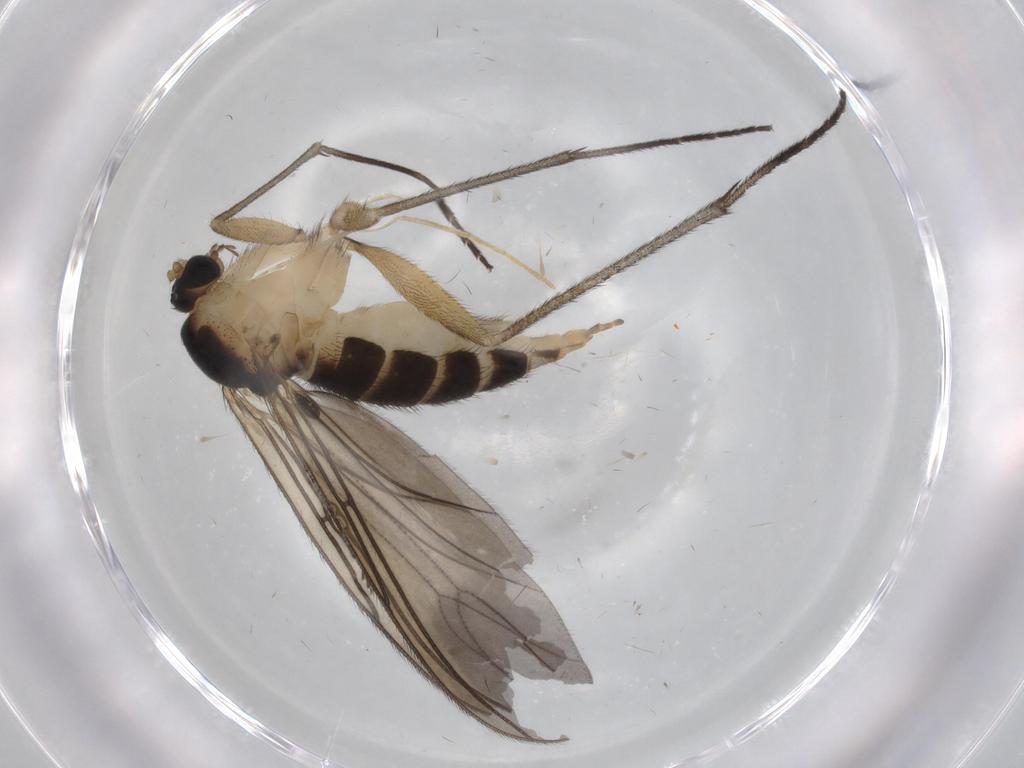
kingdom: Animalia
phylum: Arthropoda
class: Insecta
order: Diptera
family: Sciaridae
